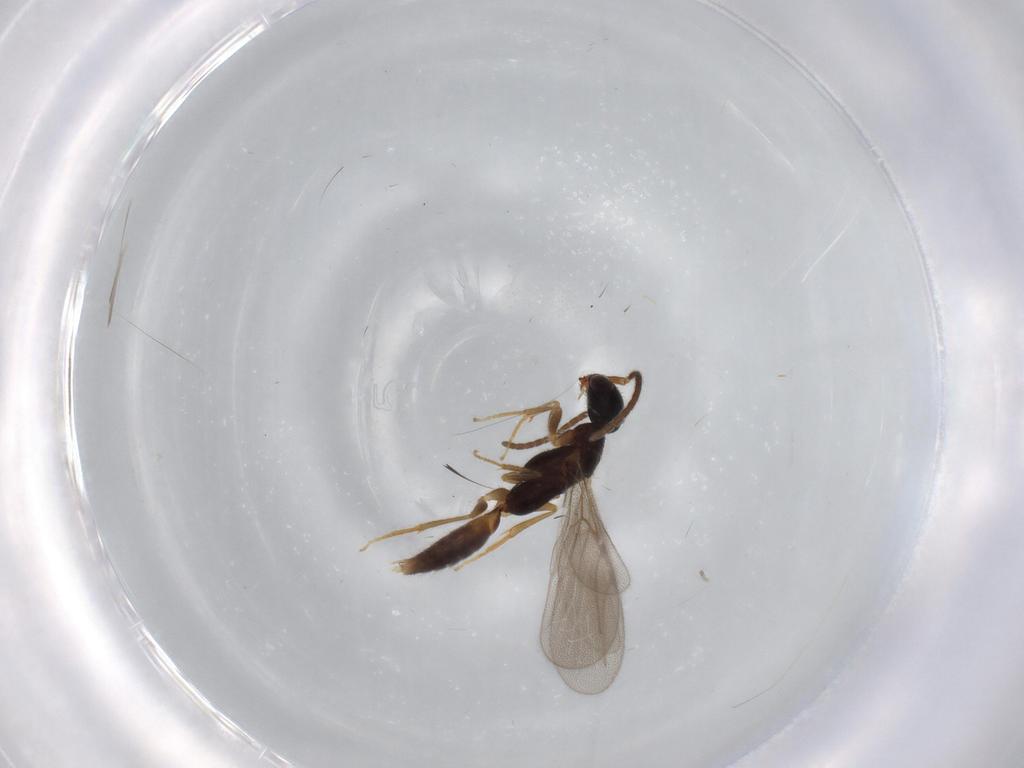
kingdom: Animalia
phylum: Arthropoda
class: Insecta
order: Hymenoptera
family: Bethylidae
